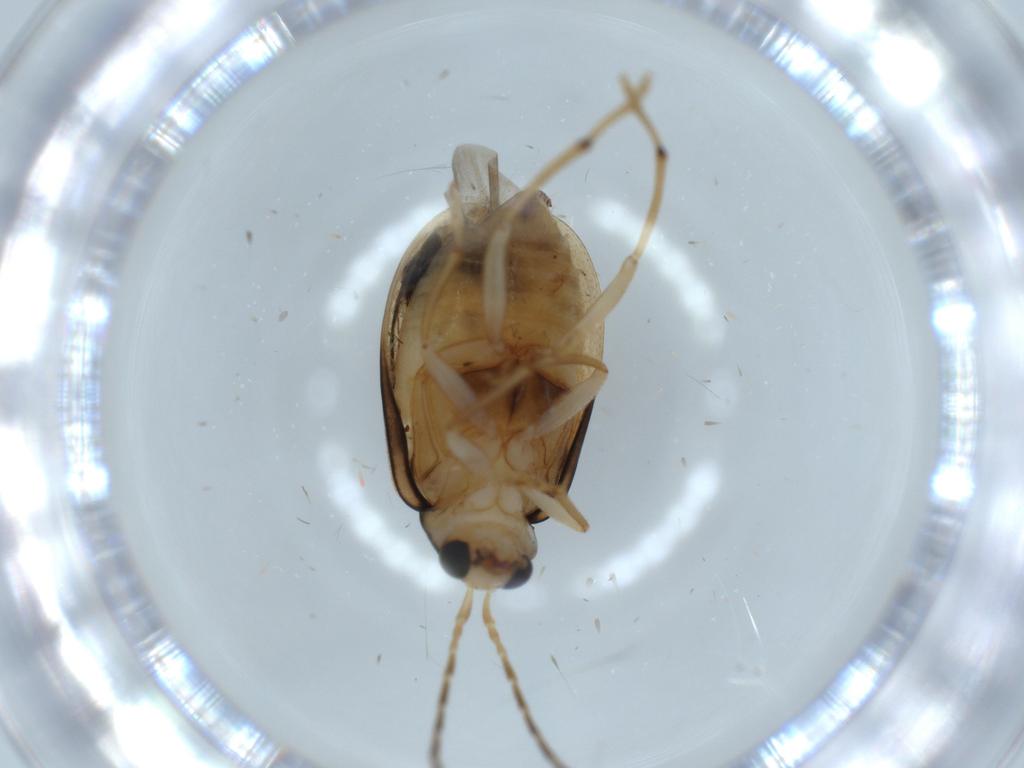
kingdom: Animalia
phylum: Arthropoda
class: Insecta
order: Coleoptera
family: Chrysomelidae
